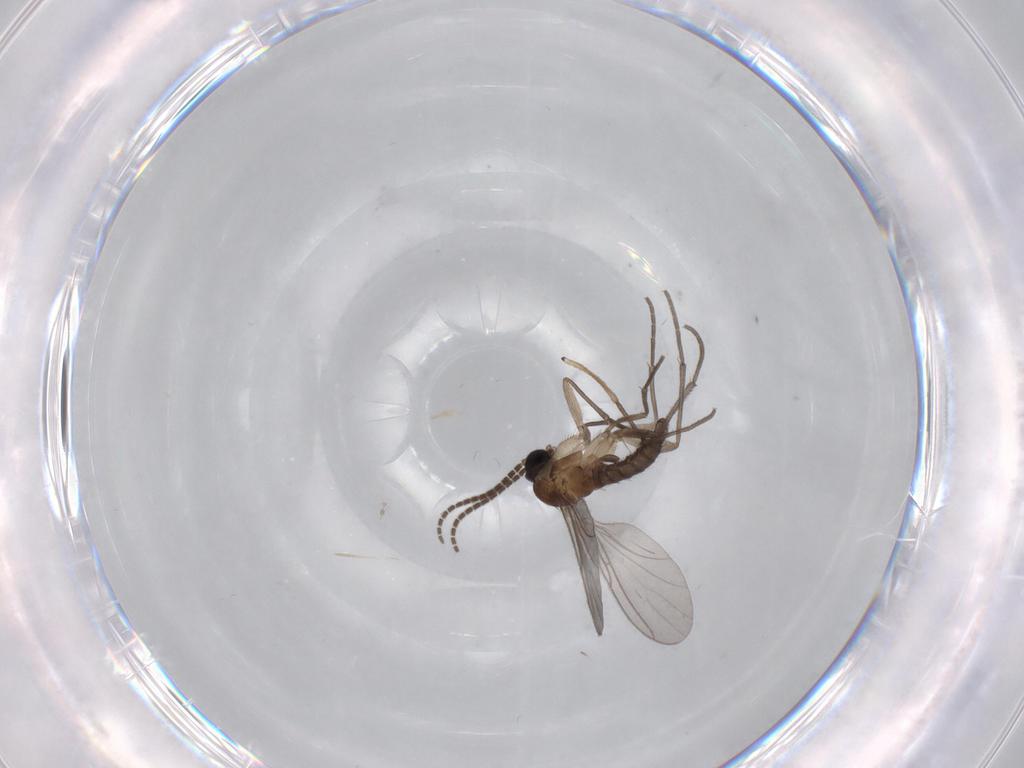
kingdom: Animalia
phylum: Arthropoda
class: Insecta
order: Diptera
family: Sciaridae
